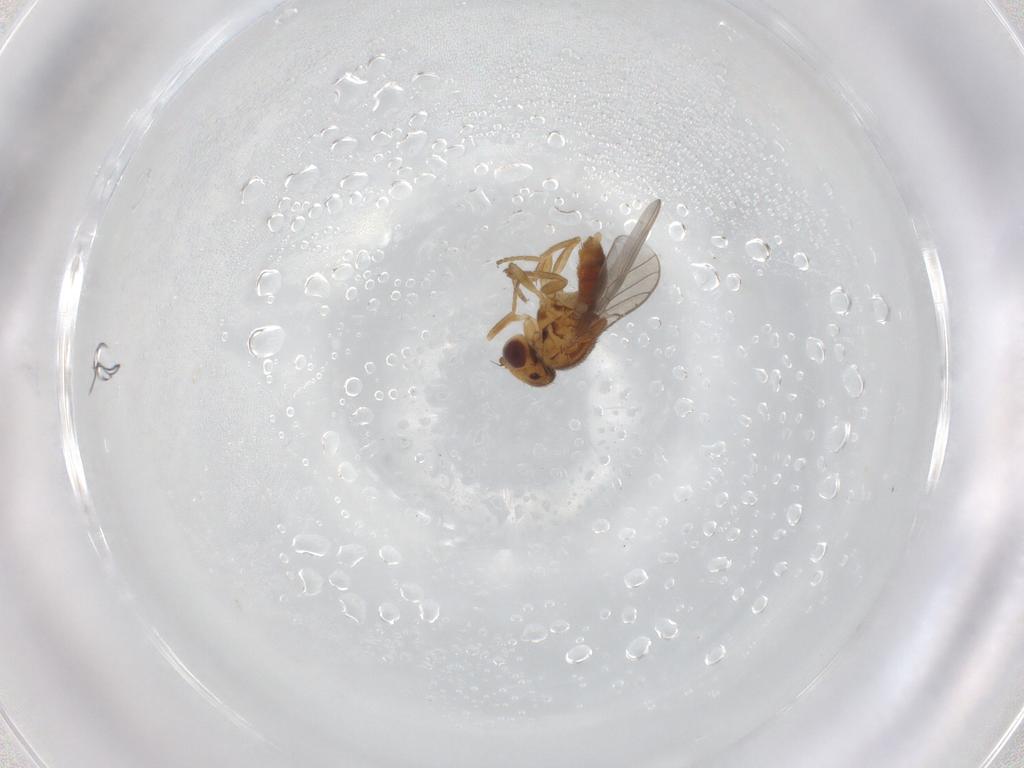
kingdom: Animalia
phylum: Arthropoda
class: Insecta
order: Diptera
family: Chloropidae
